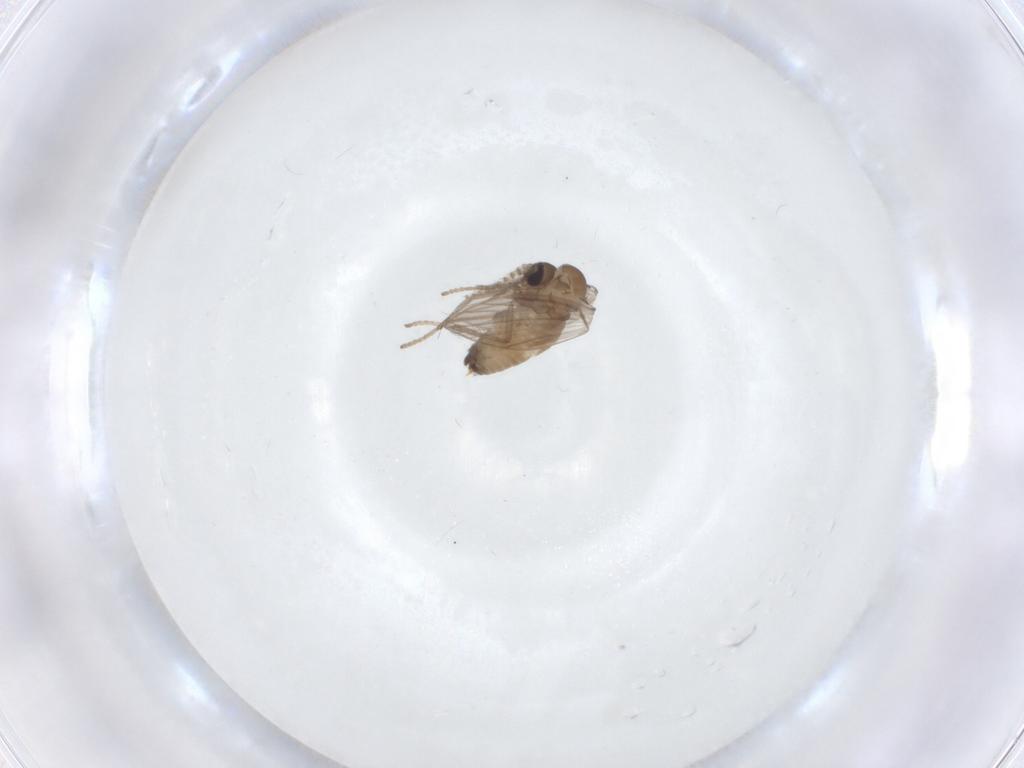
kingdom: Animalia
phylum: Arthropoda
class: Insecta
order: Diptera
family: Psychodidae
